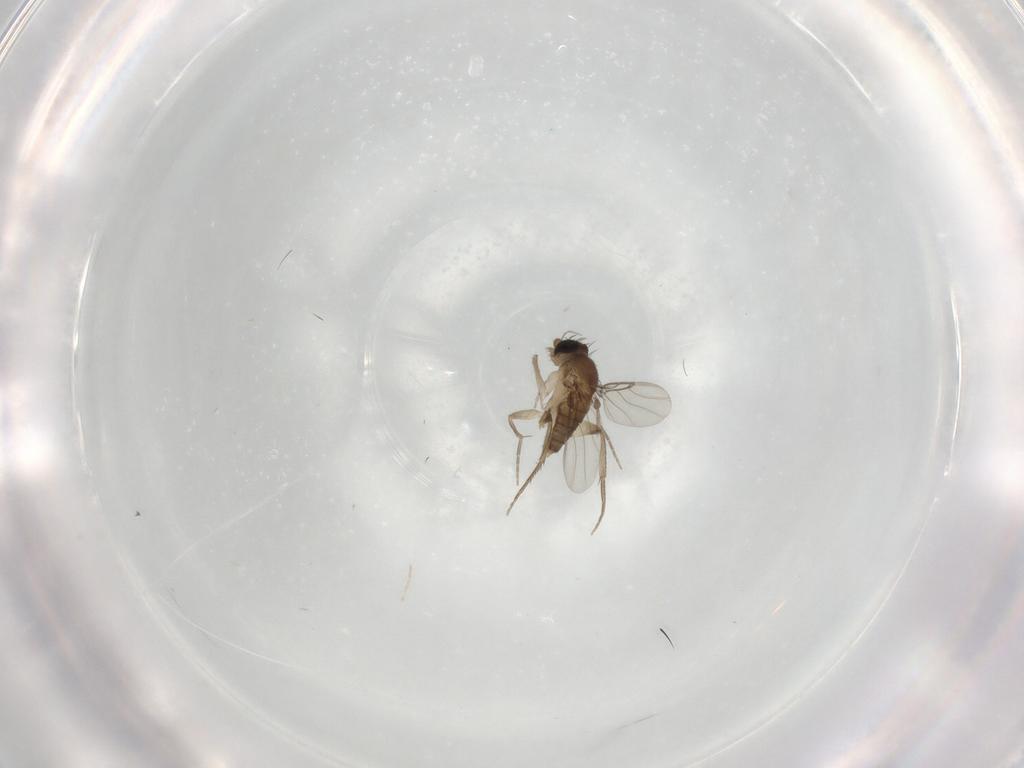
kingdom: Animalia
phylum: Arthropoda
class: Insecta
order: Diptera
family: Phoridae
